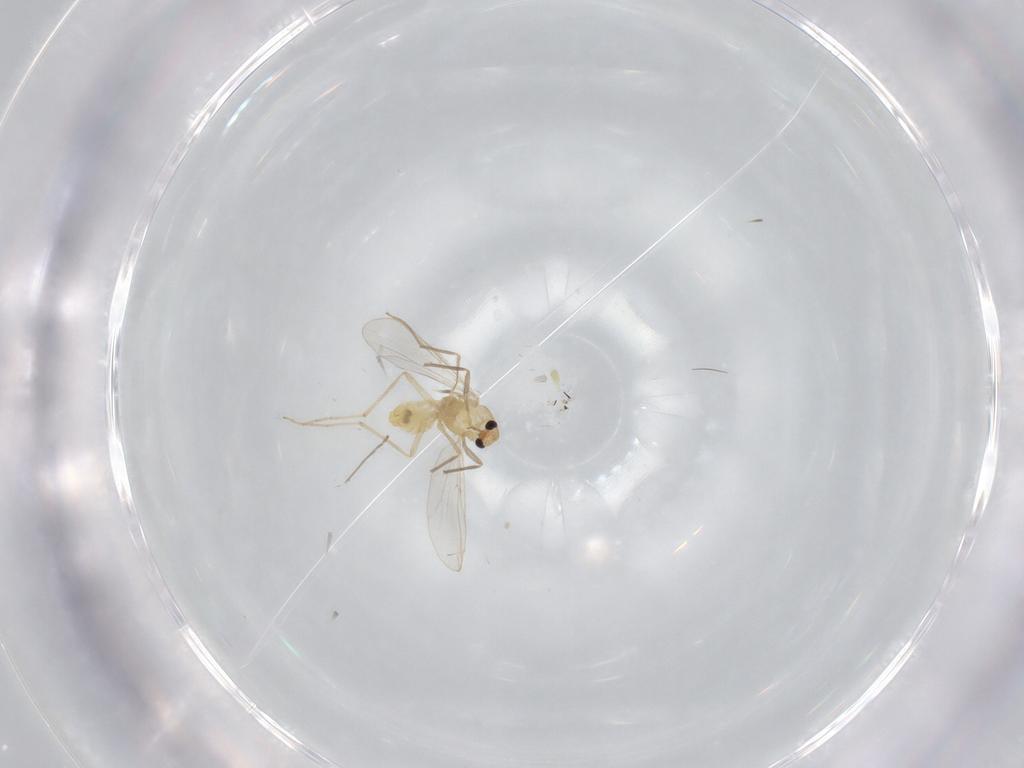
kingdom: Animalia
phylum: Arthropoda
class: Insecta
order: Diptera
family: Chironomidae
